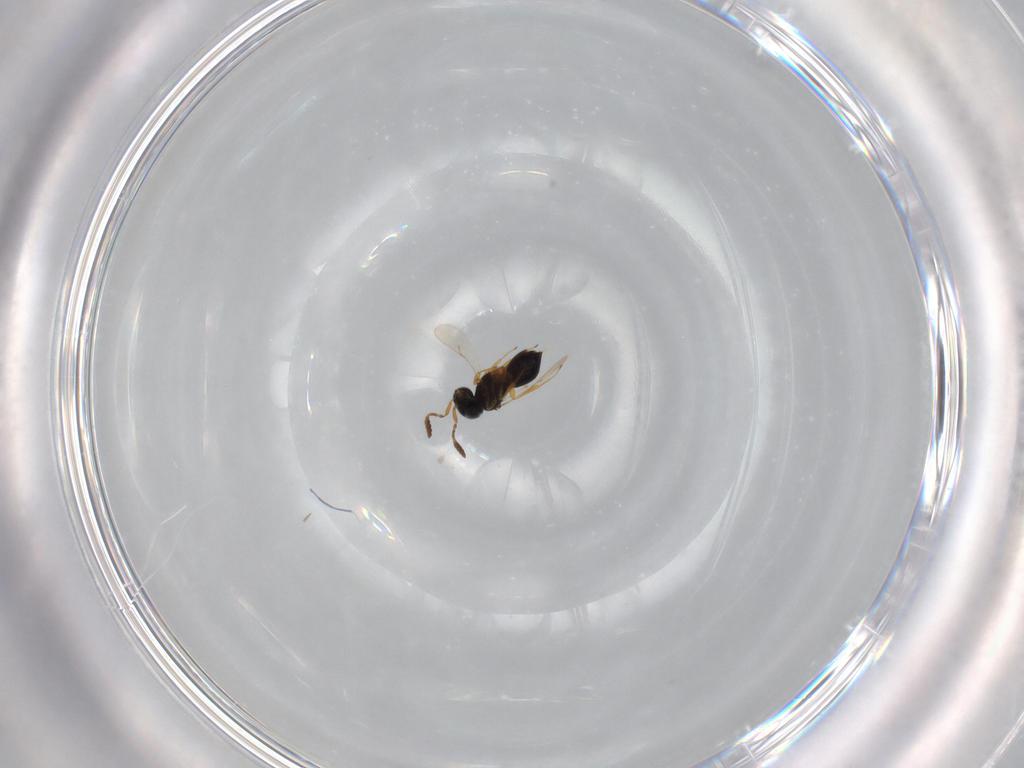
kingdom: Animalia
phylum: Arthropoda
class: Insecta
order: Hymenoptera
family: Scelionidae
